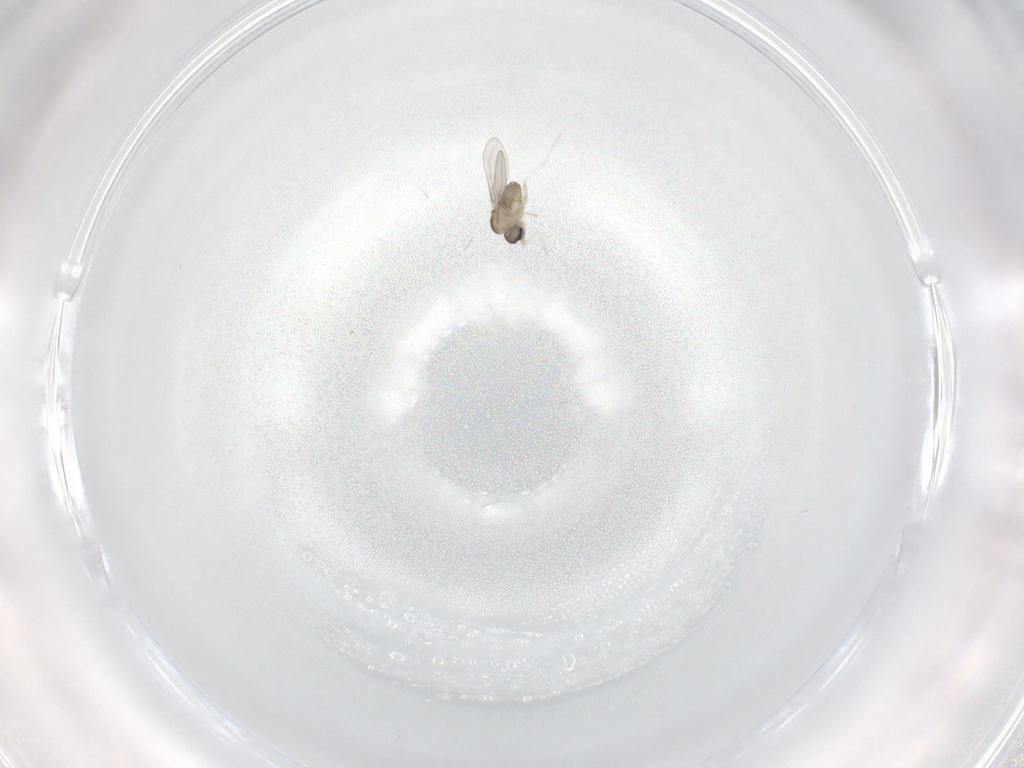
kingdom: Animalia
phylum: Arthropoda
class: Insecta
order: Diptera
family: Cecidomyiidae
